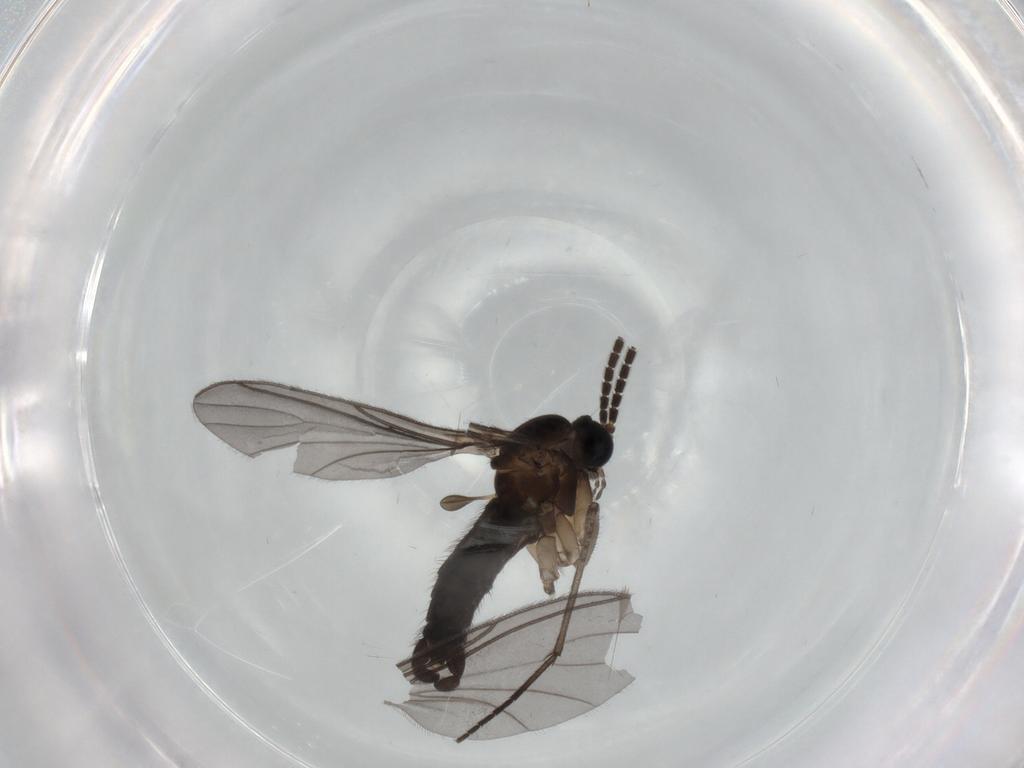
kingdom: Animalia
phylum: Arthropoda
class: Insecta
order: Diptera
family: Sciaridae
